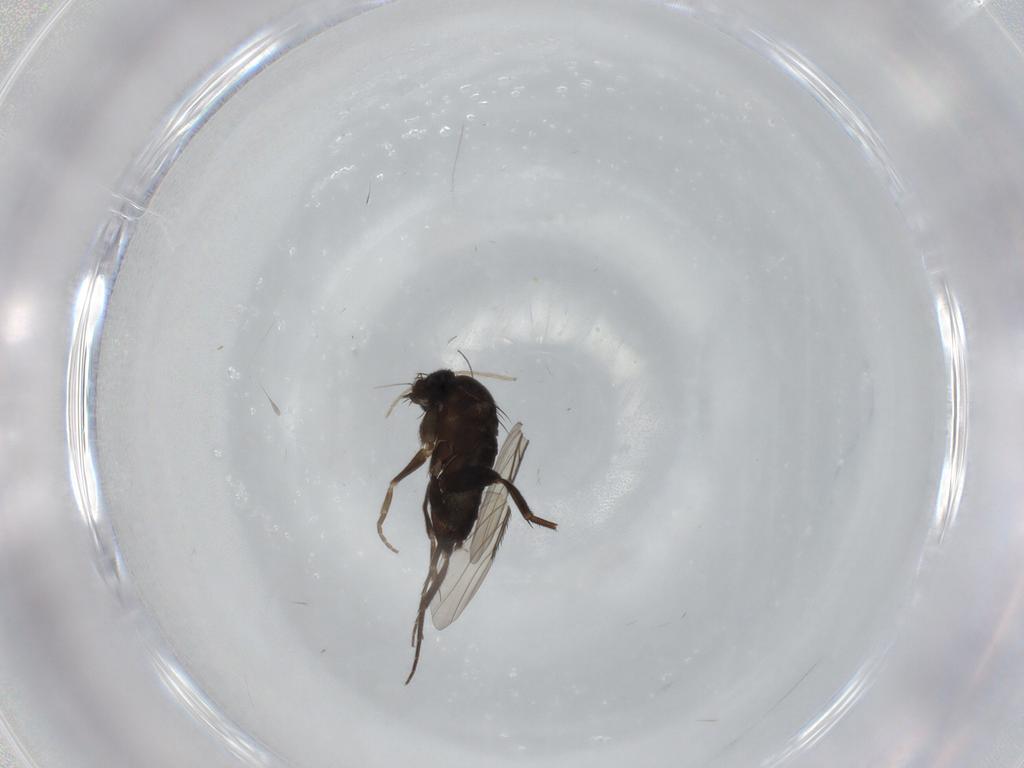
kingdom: Animalia
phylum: Arthropoda
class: Insecta
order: Diptera
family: Phoridae
